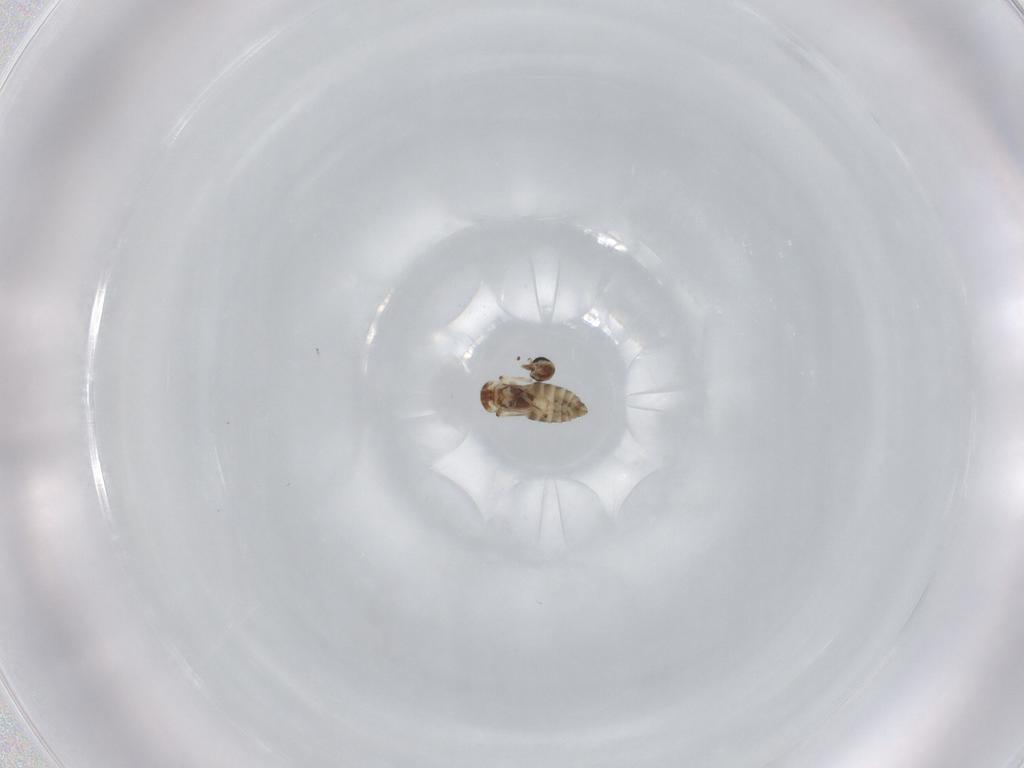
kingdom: Animalia
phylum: Arthropoda
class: Insecta
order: Diptera
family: Ceratopogonidae
